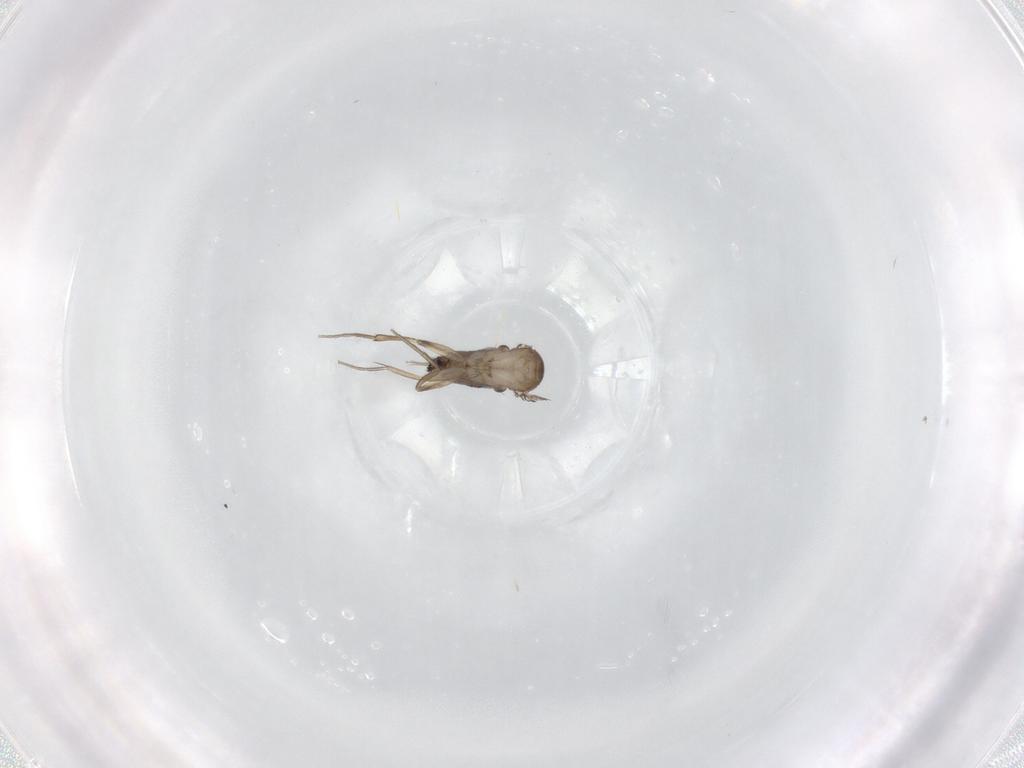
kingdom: Animalia
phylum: Arthropoda
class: Insecta
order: Diptera
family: Phoridae
